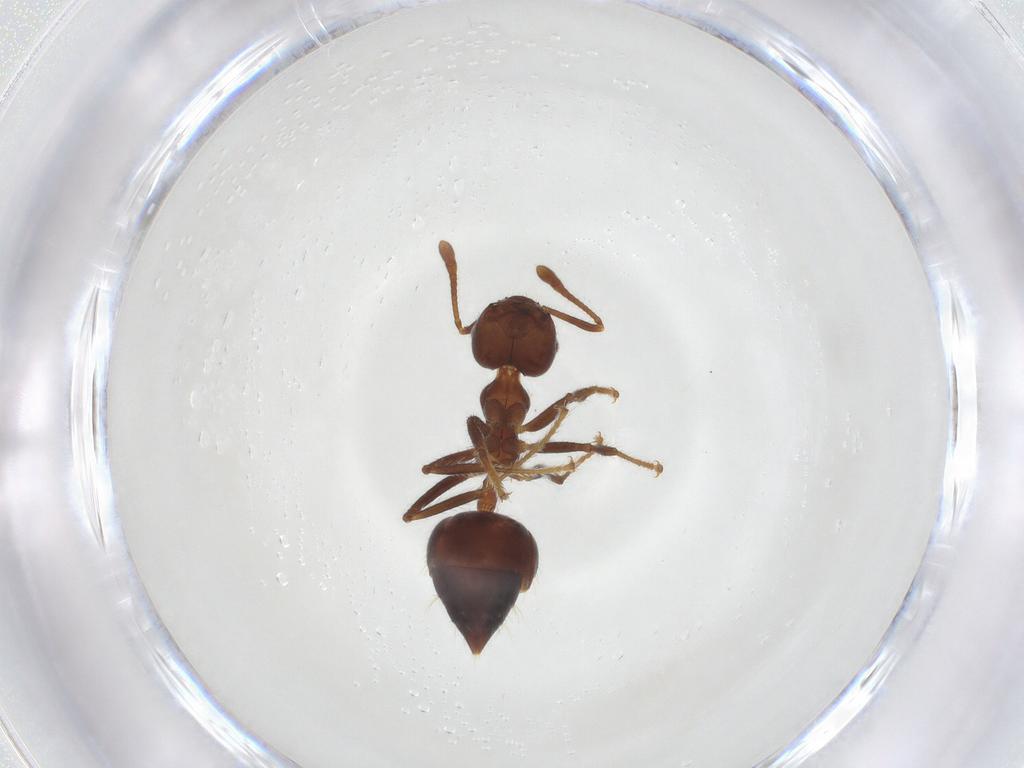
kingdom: Animalia
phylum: Arthropoda
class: Insecta
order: Hymenoptera
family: Formicidae
